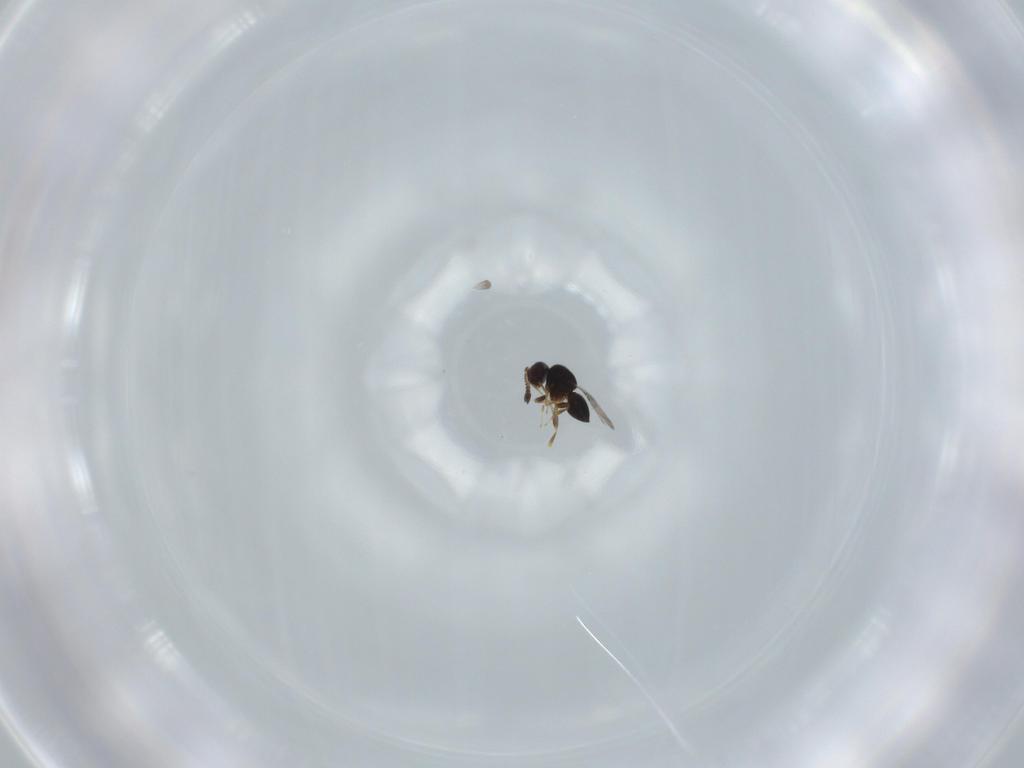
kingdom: Animalia
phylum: Arthropoda
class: Insecta
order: Hymenoptera
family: Ceraphronidae
